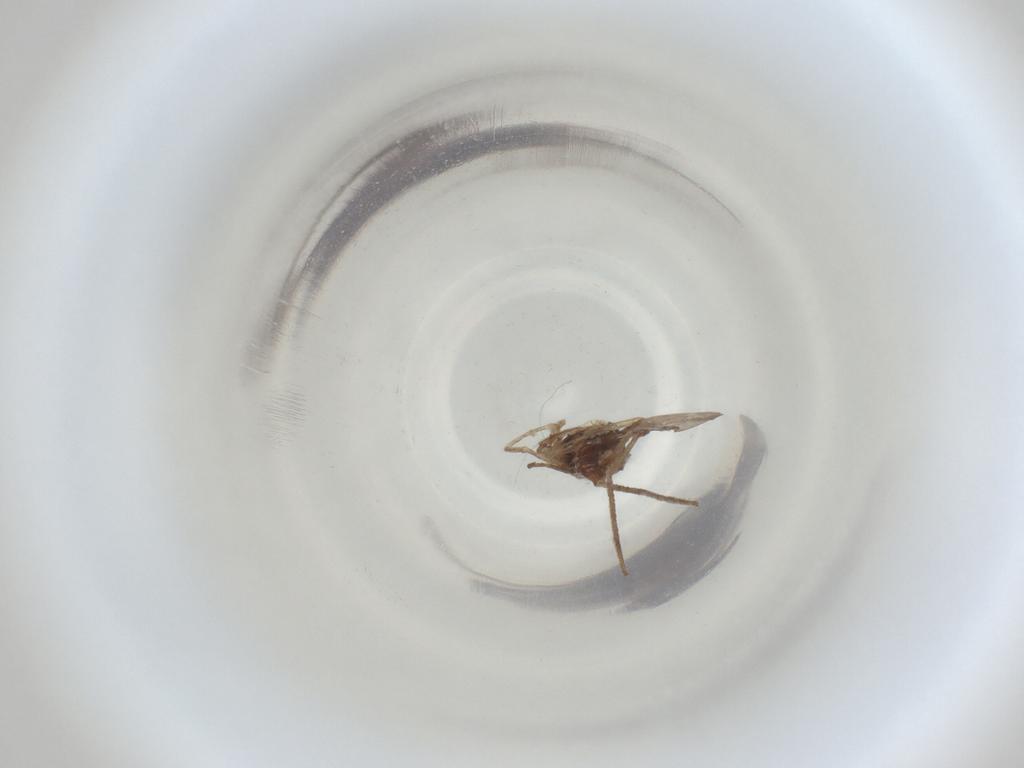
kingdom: Animalia
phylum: Arthropoda
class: Insecta
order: Diptera
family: Cecidomyiidae
